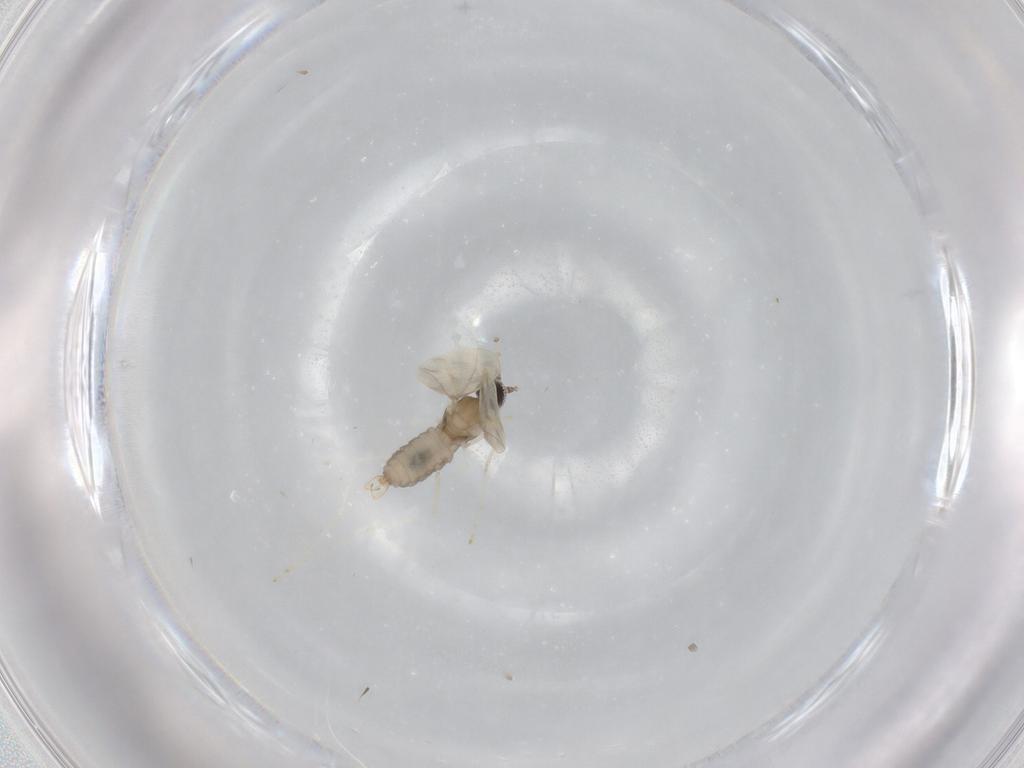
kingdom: Animalia
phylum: Arthropoda
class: Insecta
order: Diptera
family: Cecidomyiidae
